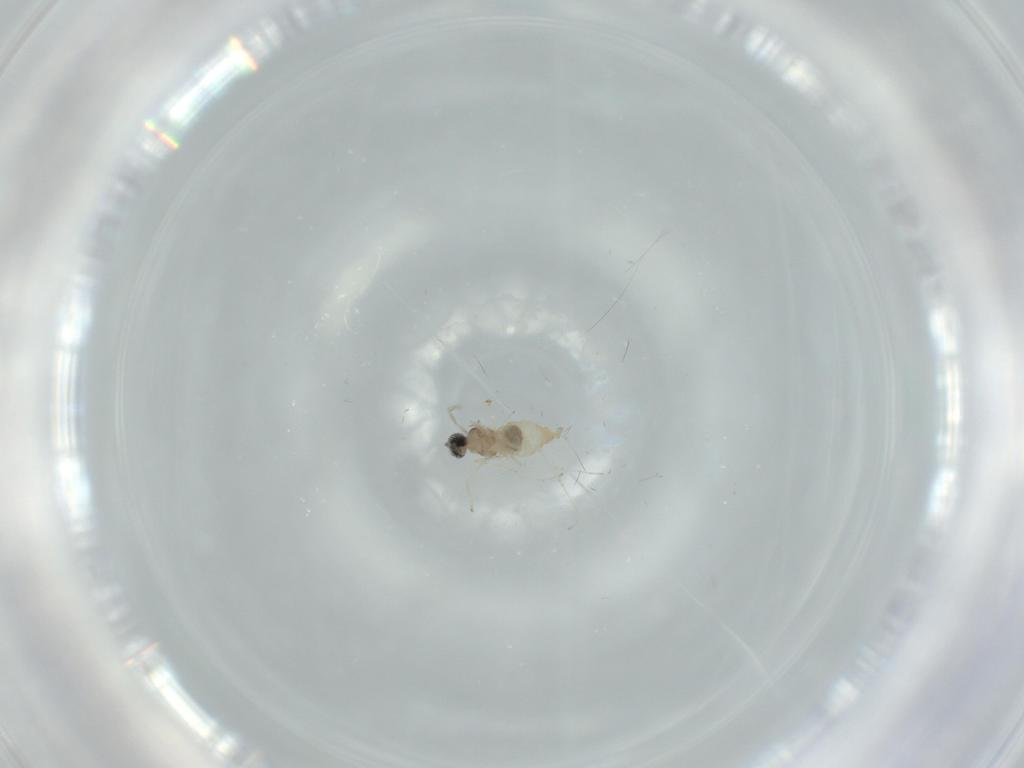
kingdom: Animalia
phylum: Arthropoda
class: Insecta
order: Diptera
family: Cecidomyiidae
